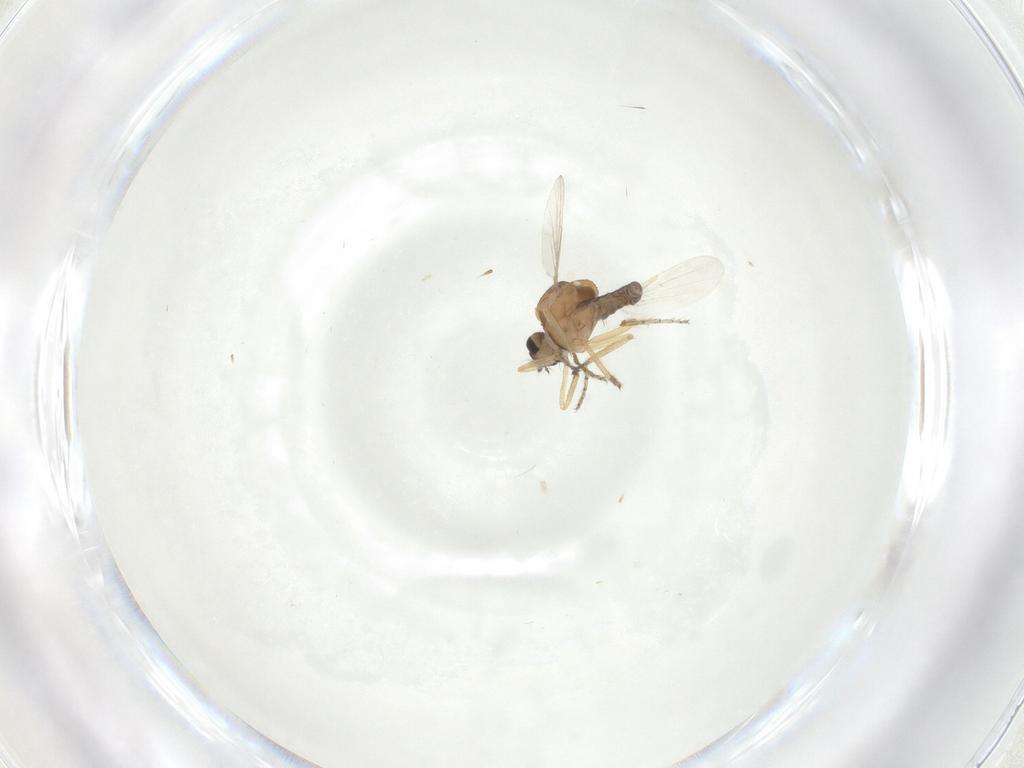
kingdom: Animalia
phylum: Arthropoda
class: Insecta
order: Diptera
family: Ceratopogonidae
